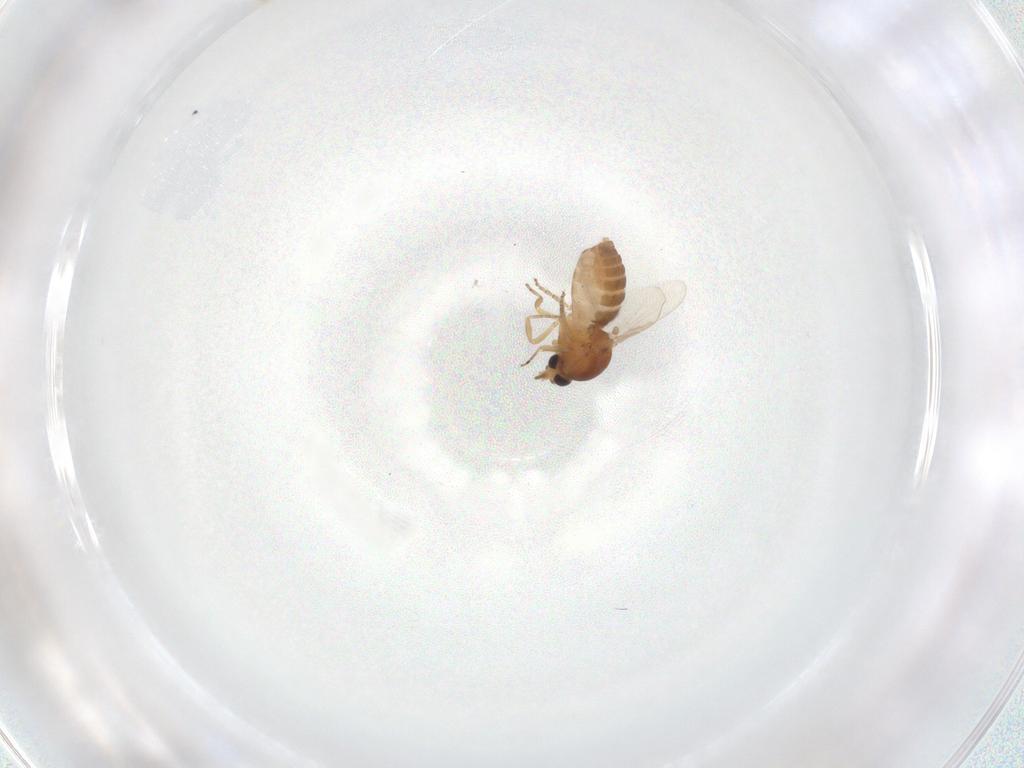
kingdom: Animalia
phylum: Arthropoda
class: Insecta
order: Diptera
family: Ceratopogonidae
